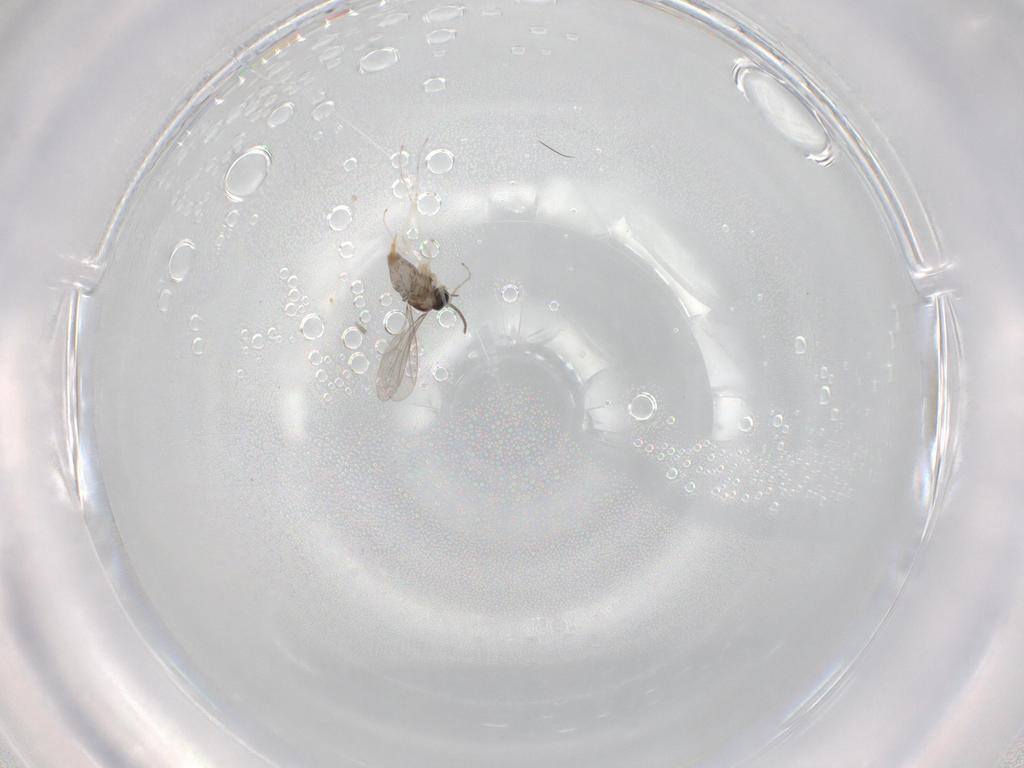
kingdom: Animalia
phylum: Arthropoda
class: Insecta
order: Diptera
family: Cecidomyiidae
